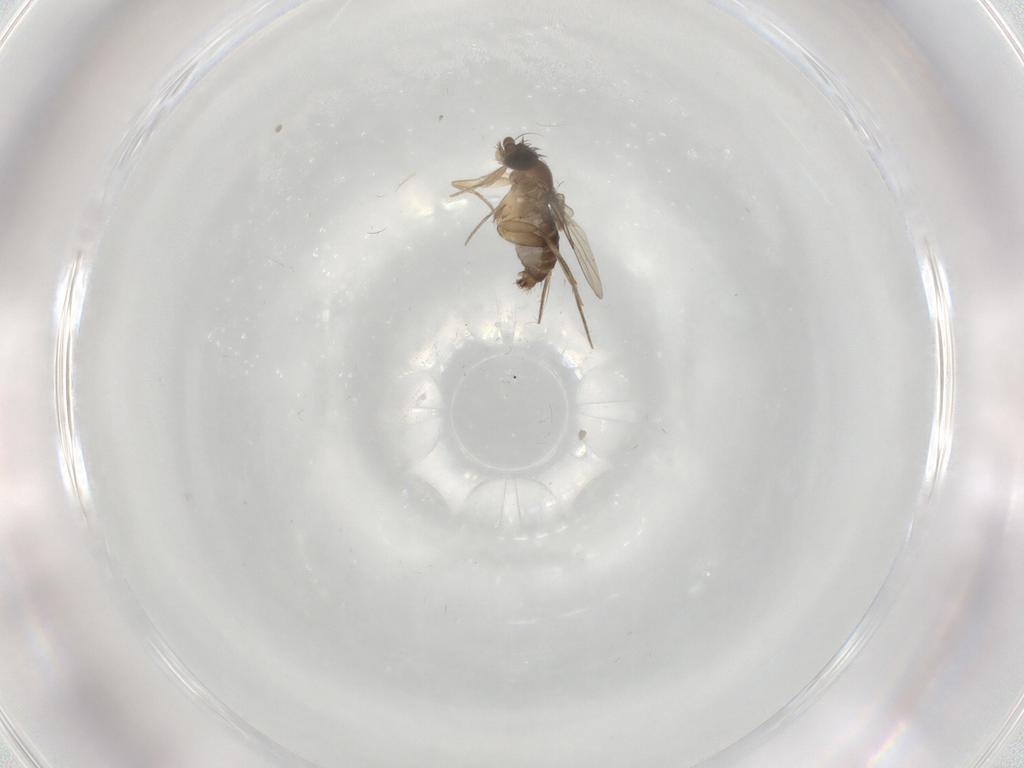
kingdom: Animalia
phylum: Arthropoda
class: Insecta
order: Diptera
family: Phoridae
